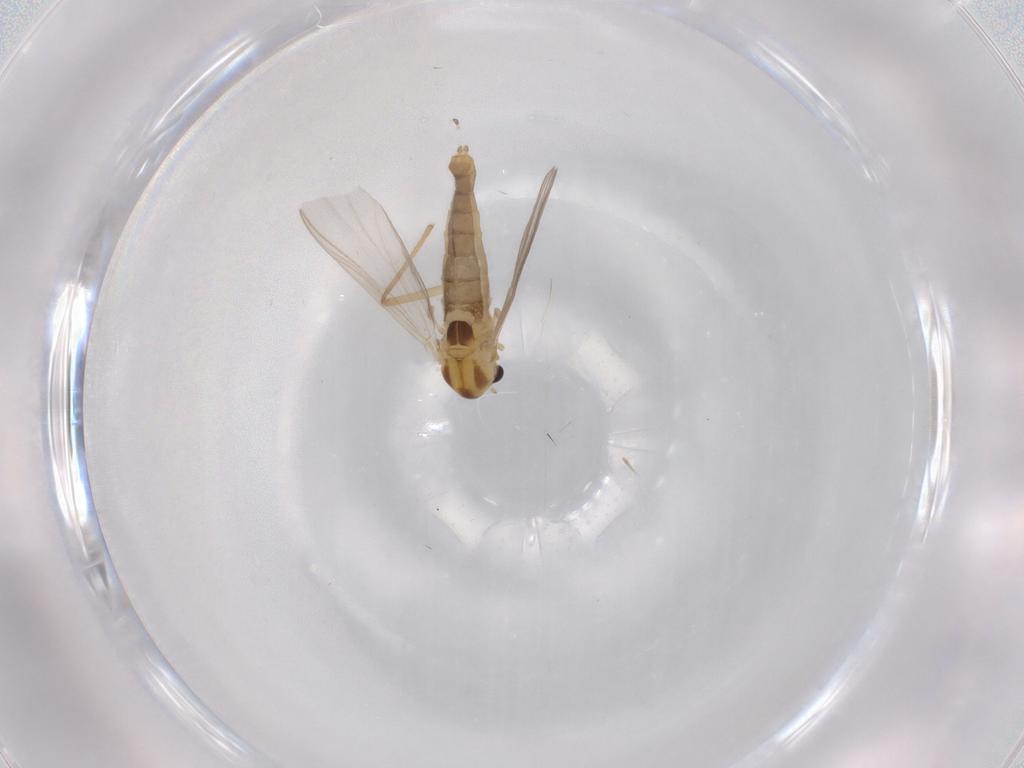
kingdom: Animalia
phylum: Arthropoda
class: Insecta
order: Diptera
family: Chironomidae
